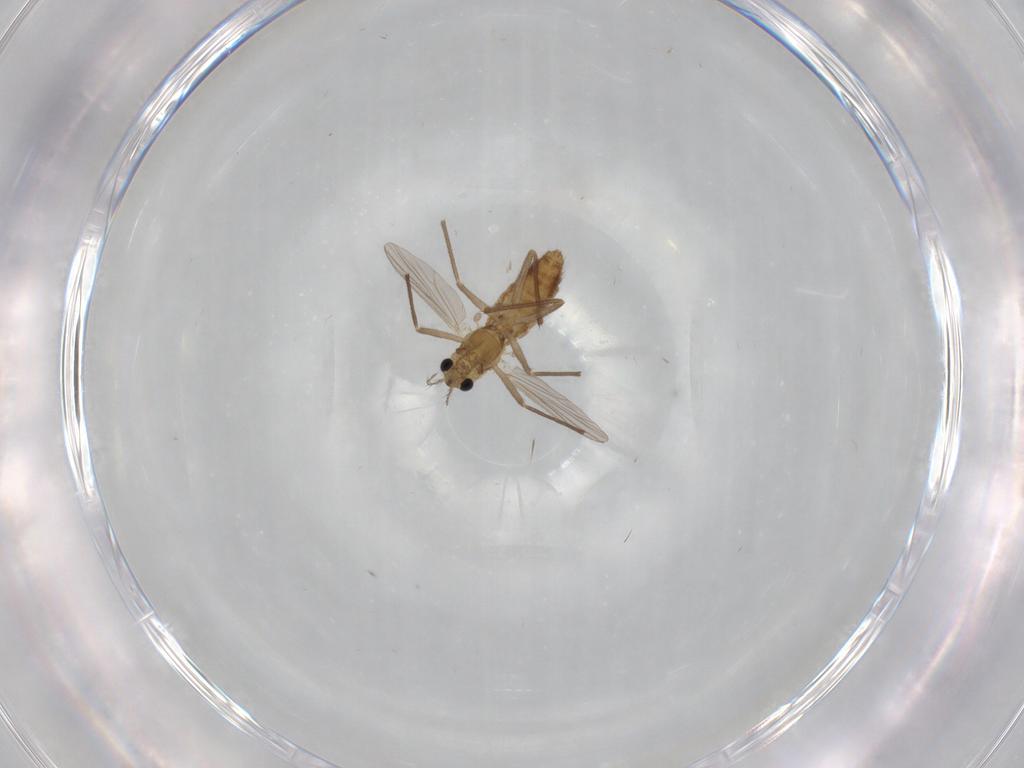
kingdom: Animalia
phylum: Arthropoda
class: Insecta
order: Diptera
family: Chironomidae
